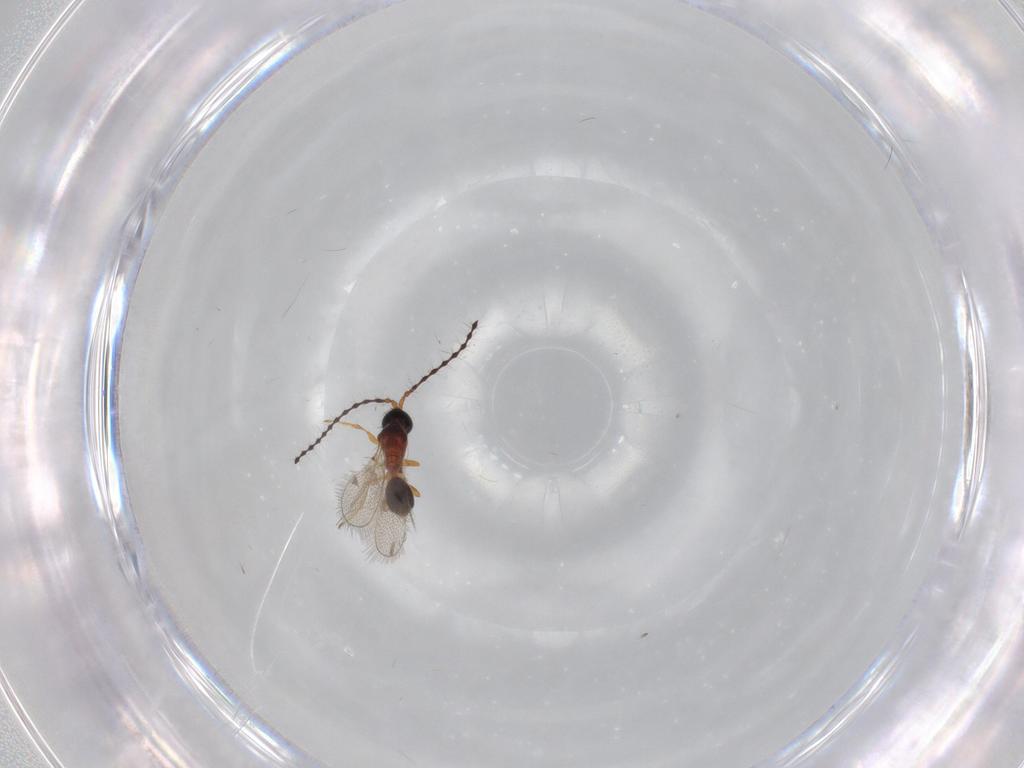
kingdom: Animalia
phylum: Arthropoda
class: Insecta
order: Hymenoptera
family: Diapriidae
